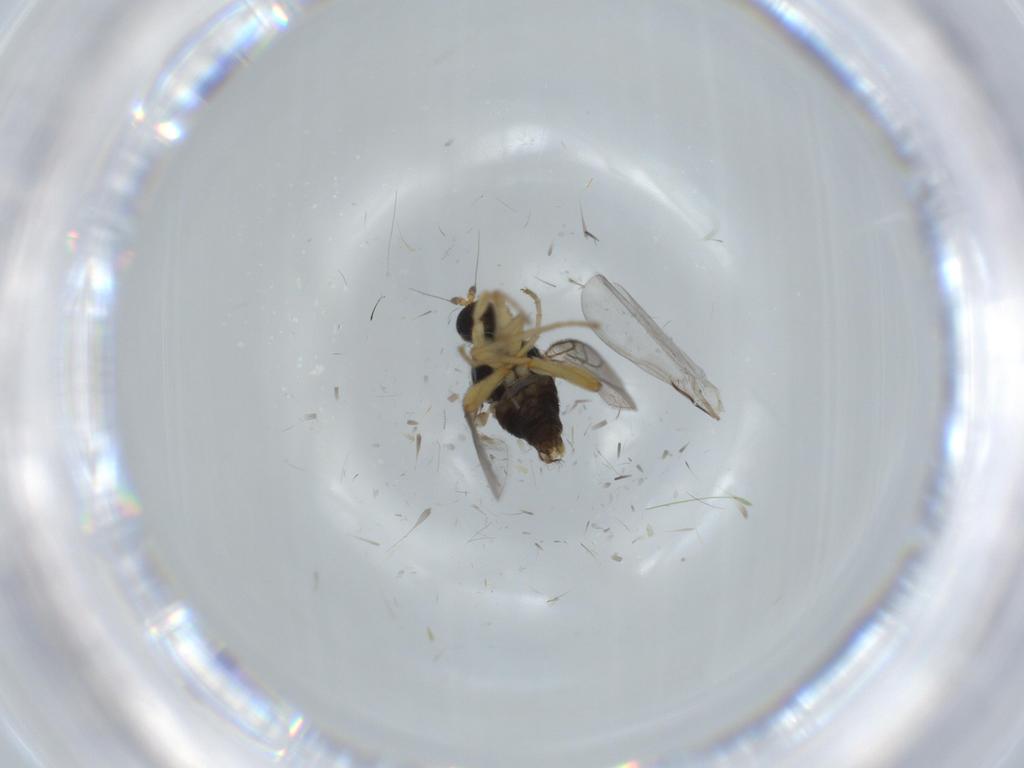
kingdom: Animalia
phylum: Arthropoda
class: Insecta
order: Diptera
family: Hybotidae
